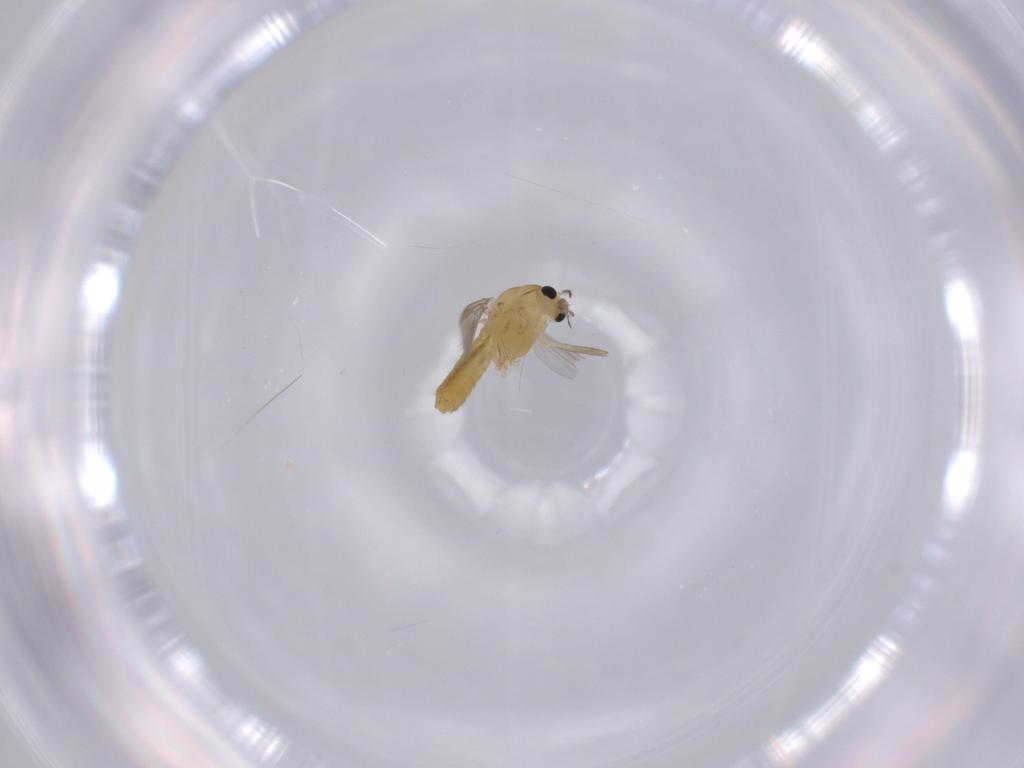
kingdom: Animalia
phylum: Arthropoda
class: Insecta
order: Diptera
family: Chironomidae
